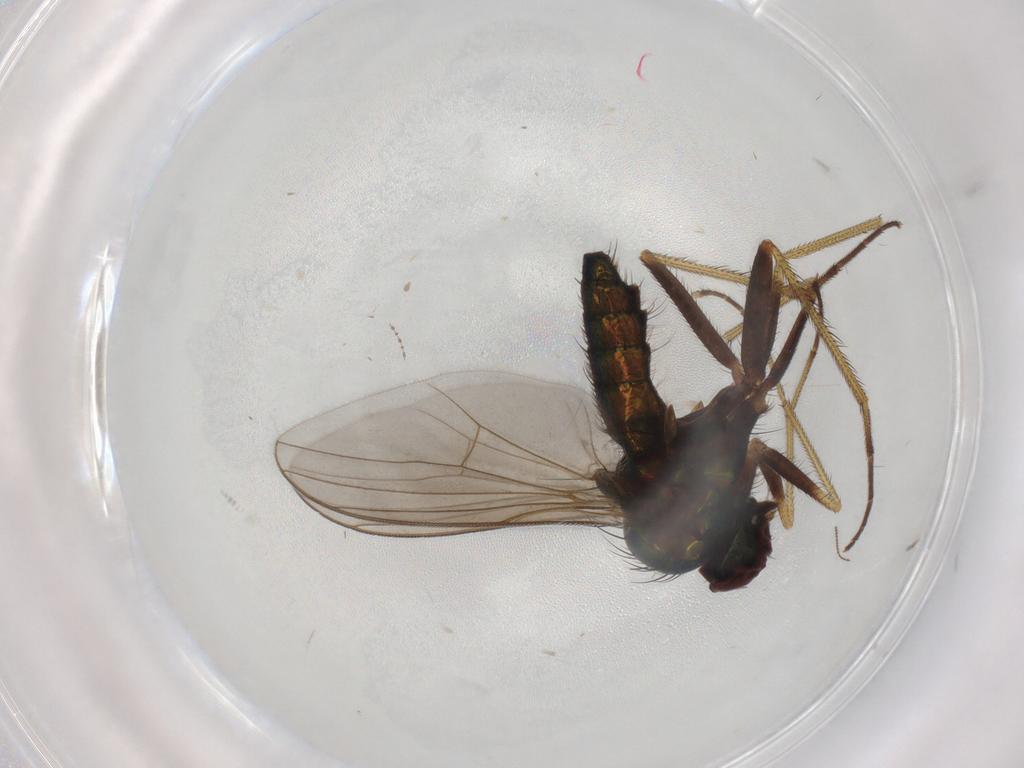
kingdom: Animalia
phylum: Arthropoda
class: Insecta
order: Diptera
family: Dolichopodidae
